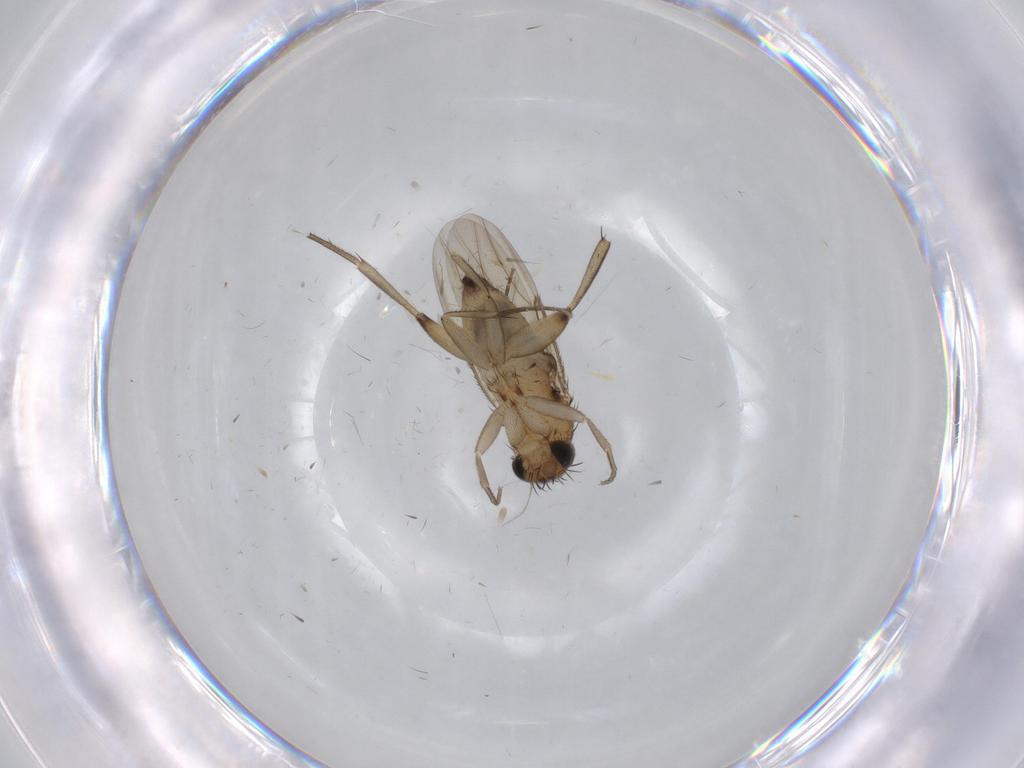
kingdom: Animalia
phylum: Arthropoda
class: Insecta
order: Diptera
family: Phoridae
